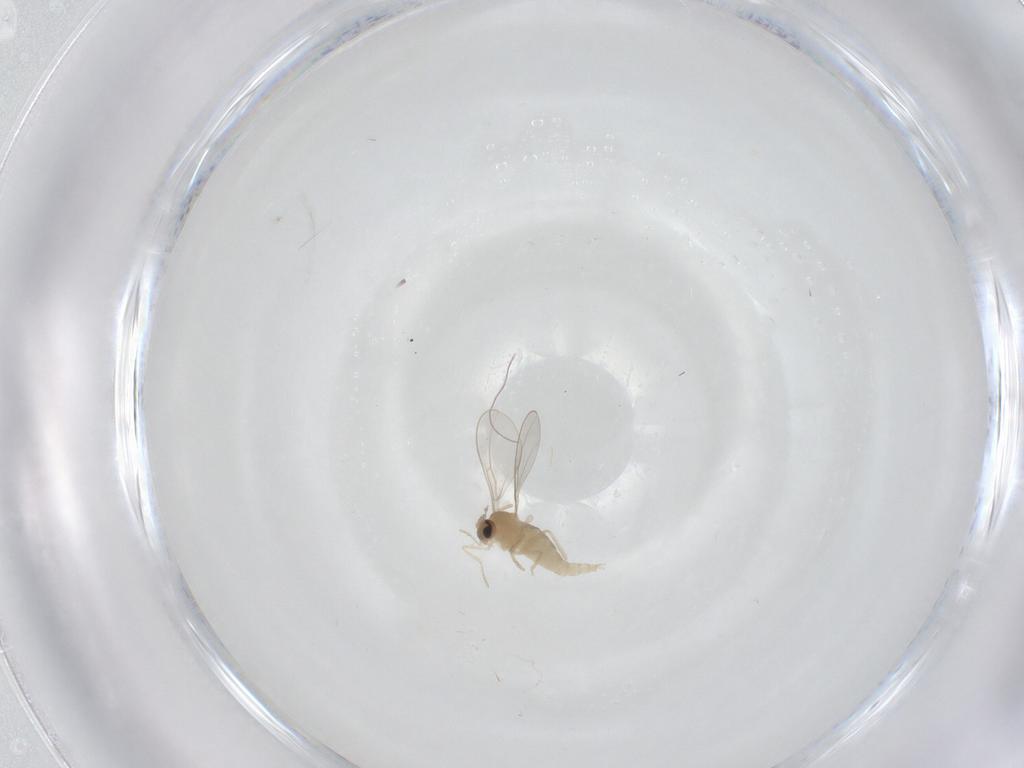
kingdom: Animalia
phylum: Arthropoda
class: Insecta
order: Diptera
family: Cecidomyiidae
